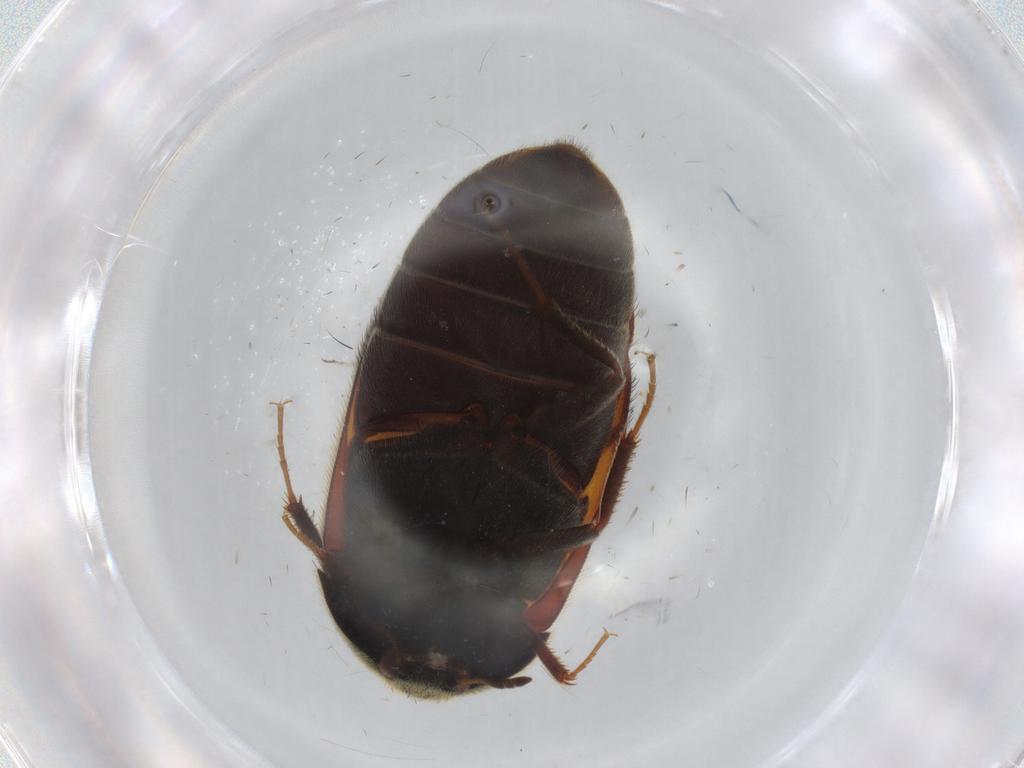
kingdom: Animalia
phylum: Arthropoda
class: Insecta
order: Coleoptera
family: Dermestidae
